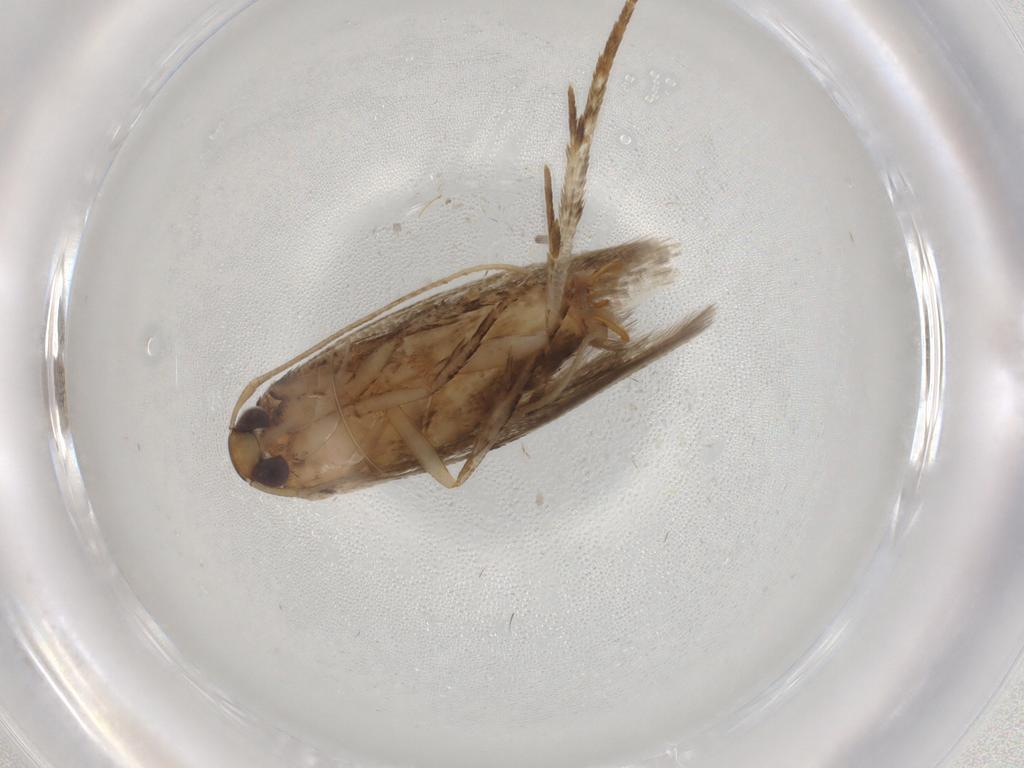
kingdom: Animalia
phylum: Arthropoda
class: Insecta
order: Lepidoptera
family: Cosmopterigidae
